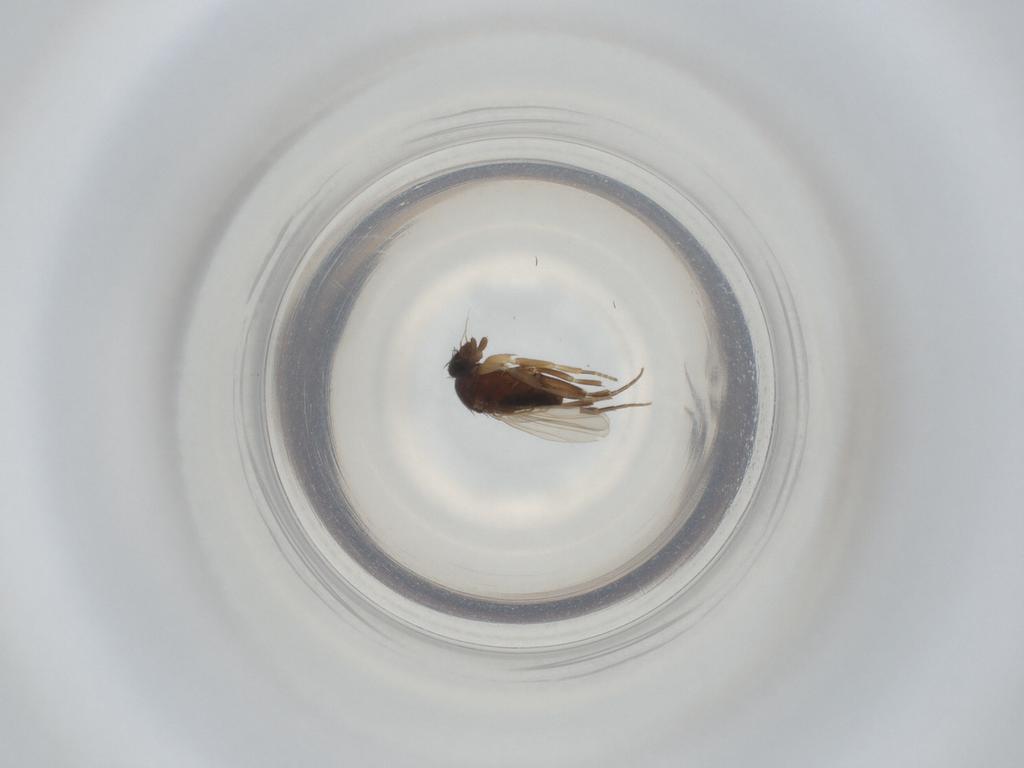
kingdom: Animalia
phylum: Arthropoda
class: Insecta
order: Diptera
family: Phoridae
